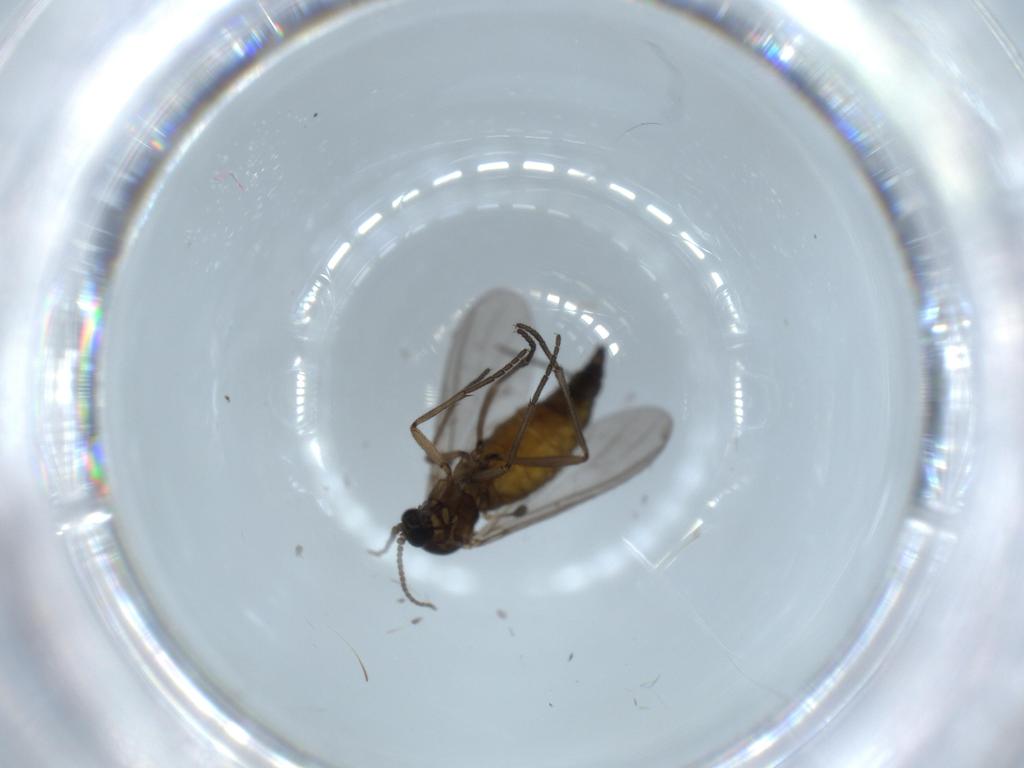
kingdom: Animalia
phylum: Arthropoda
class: Insecta
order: Diptera
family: Sciaridae
